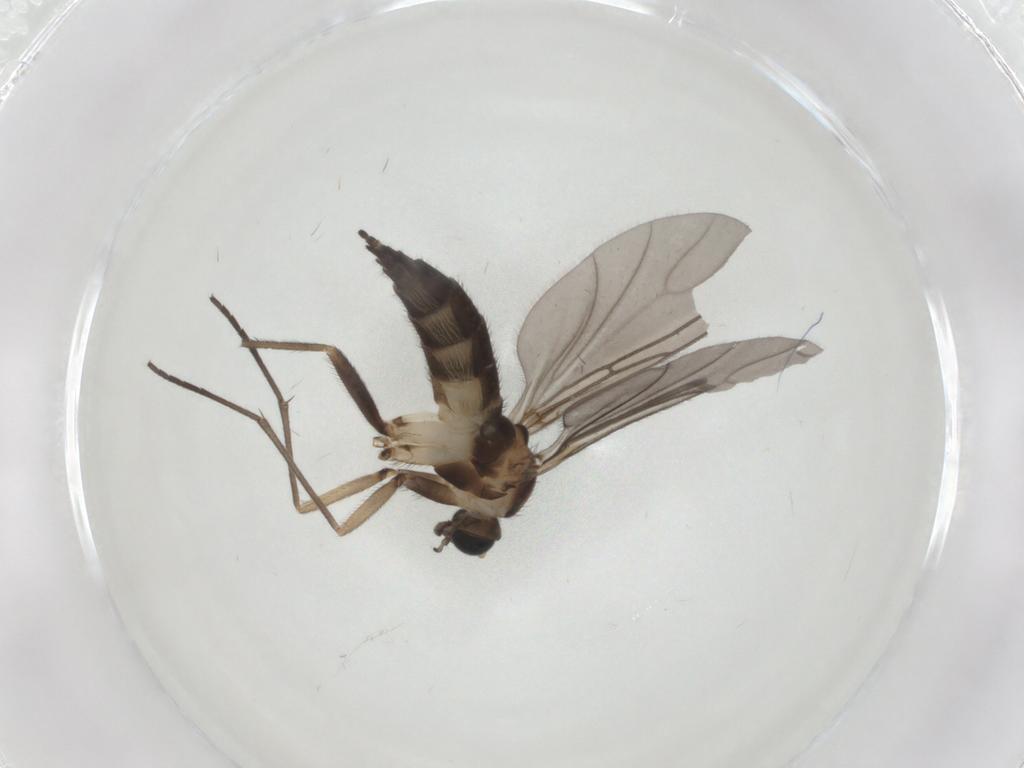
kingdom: Animalia
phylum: Arthropoda
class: Insecta
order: Diptera
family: Sciaridae
